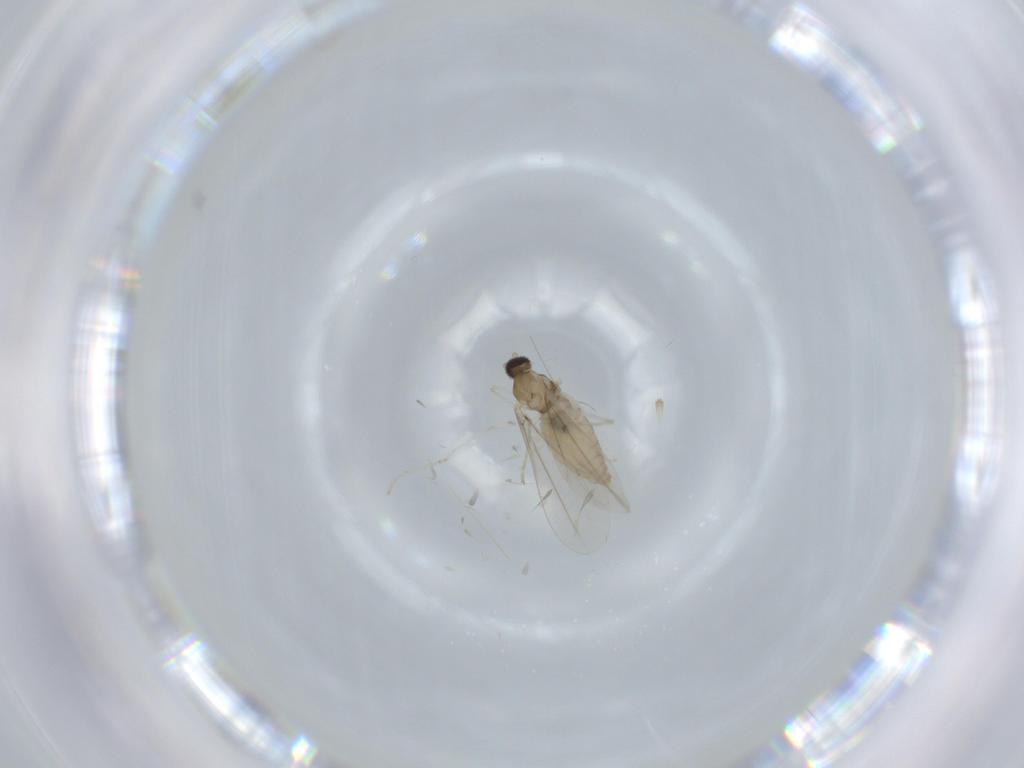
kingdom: Animalia
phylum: Arthropoda
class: Insecta
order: Diptera
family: Cecidomyiidae
